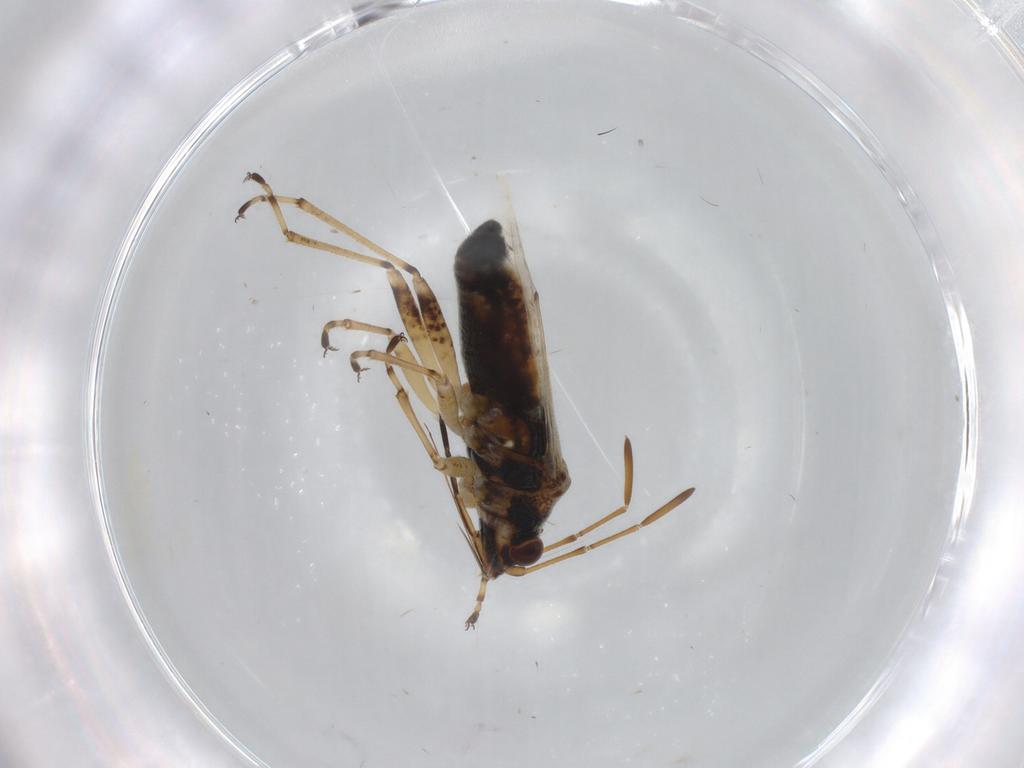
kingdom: Animalia
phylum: Arthropoda
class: Insecta
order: Hemiptera
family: Lygaeidae
